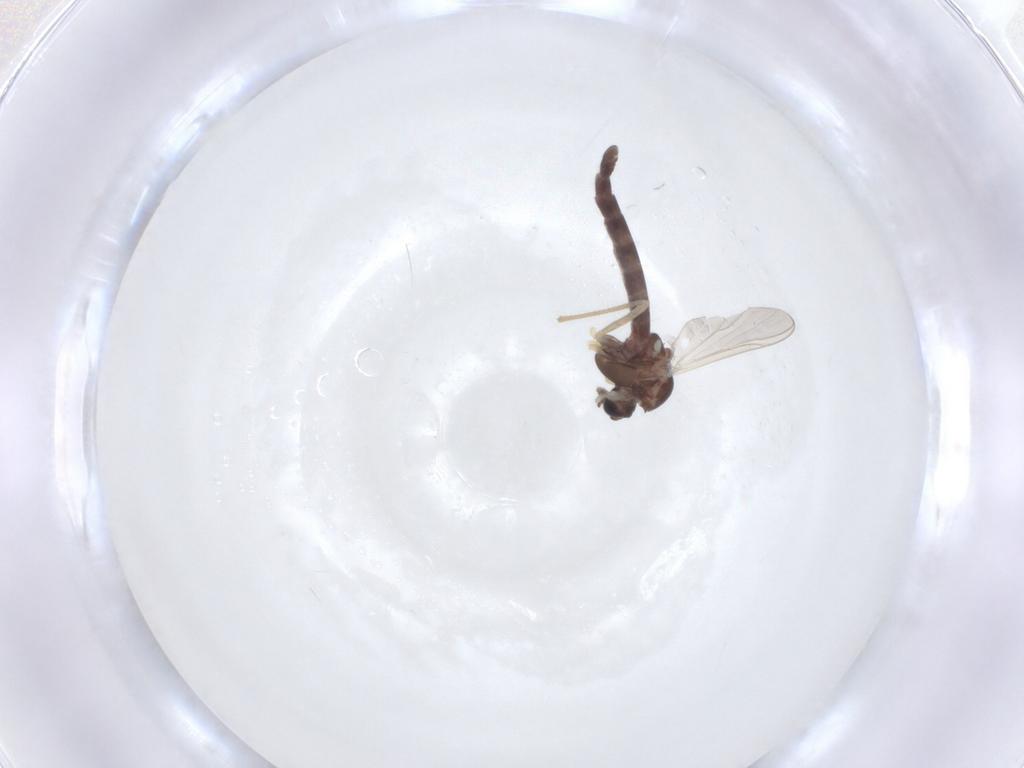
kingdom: Animalia
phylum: Arthropoda
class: Insecta
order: Diptera
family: Chironomidae
